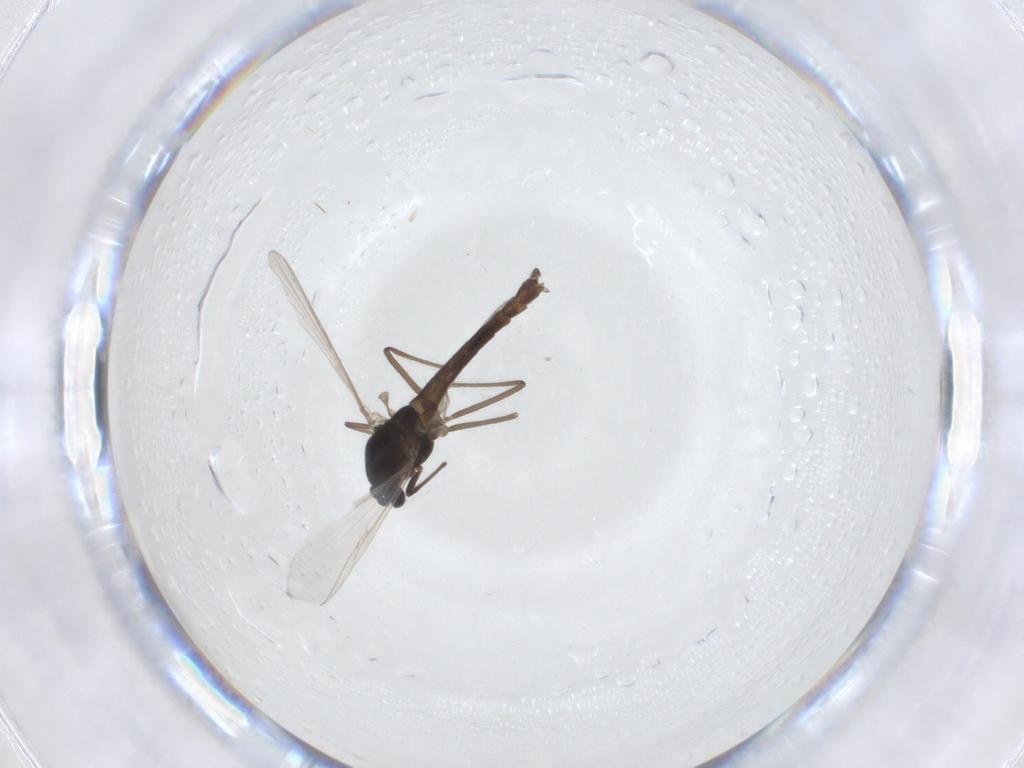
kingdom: Animalia
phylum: Arthropoda
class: Insecta
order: Diptera
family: Chironomidae
